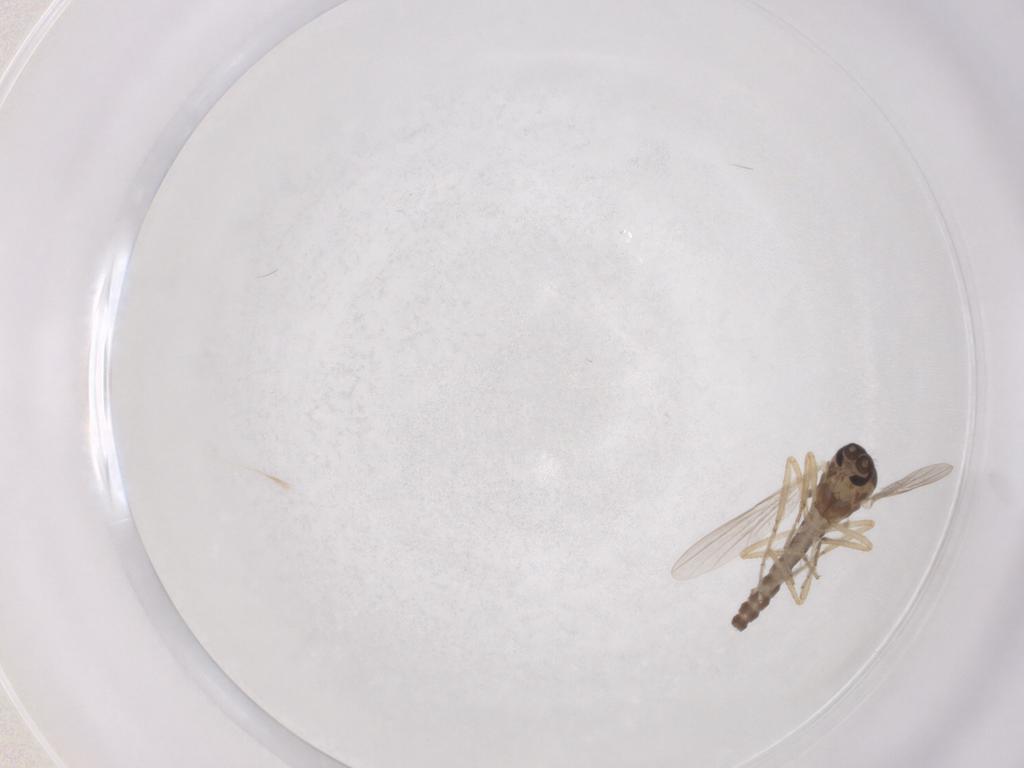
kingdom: Animalia
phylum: Arthropoda
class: Insecta
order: Diptera
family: Ceratopogonidae
